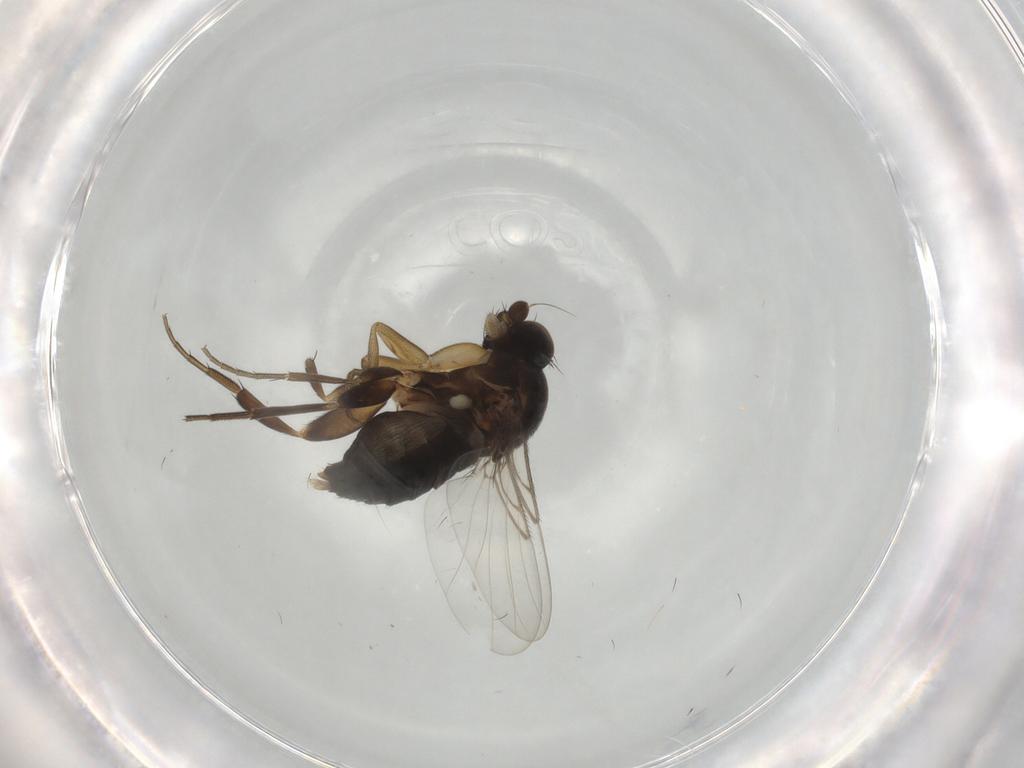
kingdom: Animalia
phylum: Arthropoda
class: Insecta
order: Diptera
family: Phoridae
